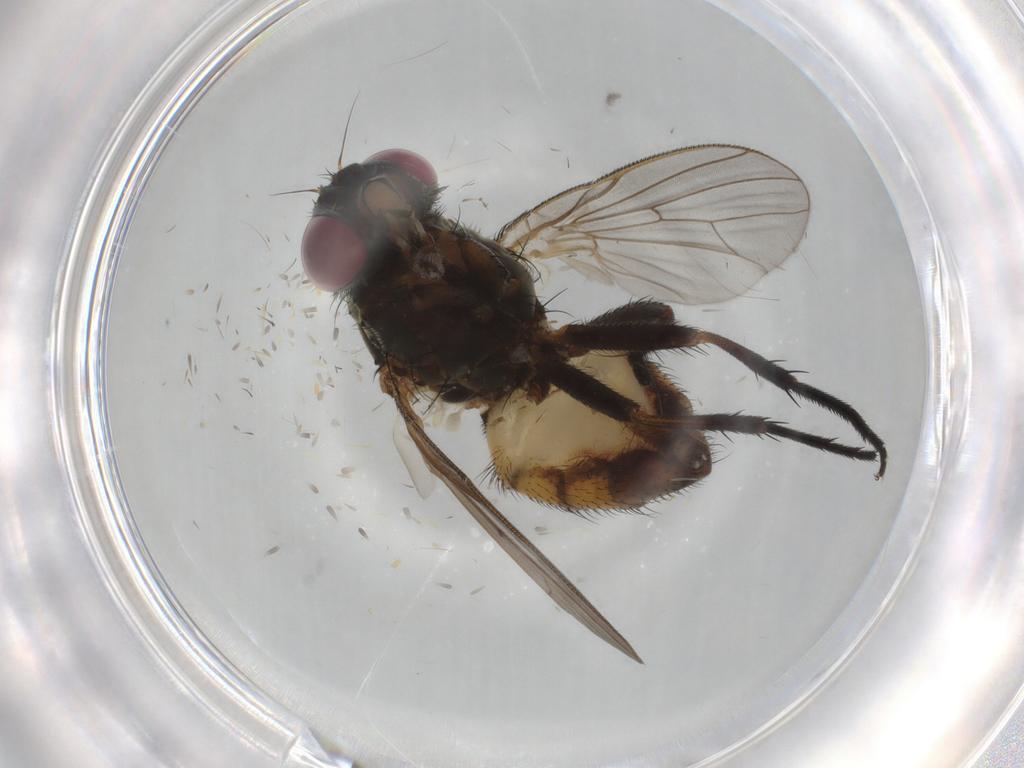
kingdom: Animalia
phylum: Arthropoda
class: Insecta
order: Diptera
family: Fannia
